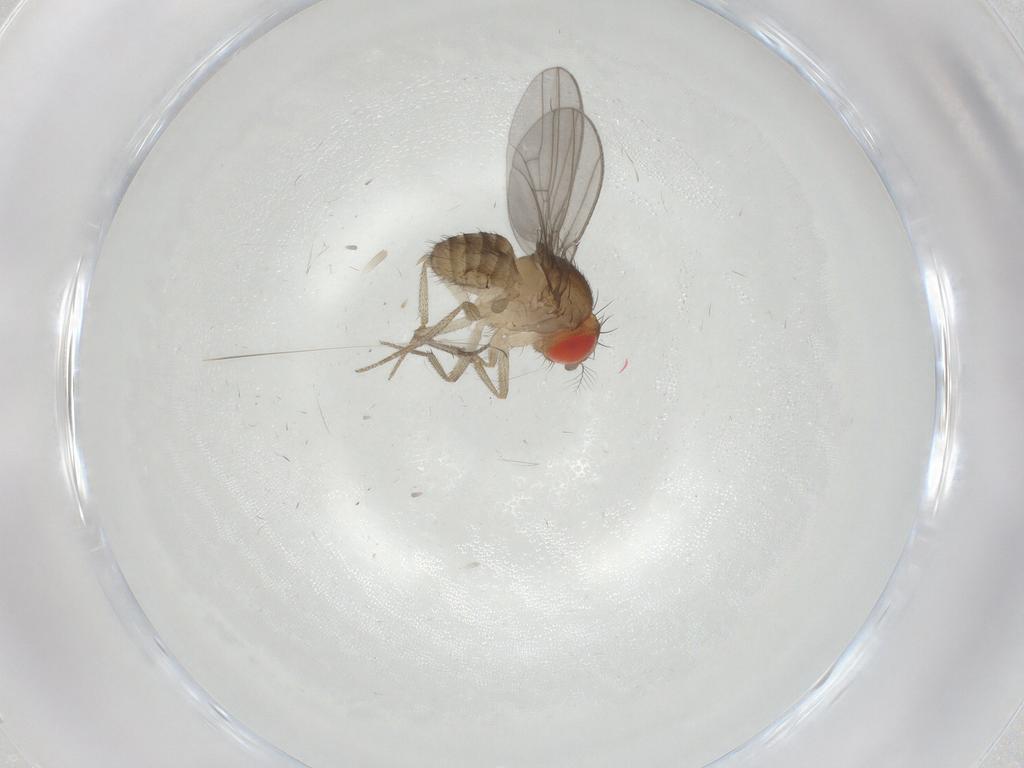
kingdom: Animalia
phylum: Arthropoda
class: Insecta
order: Diptera
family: Drosophilidae
